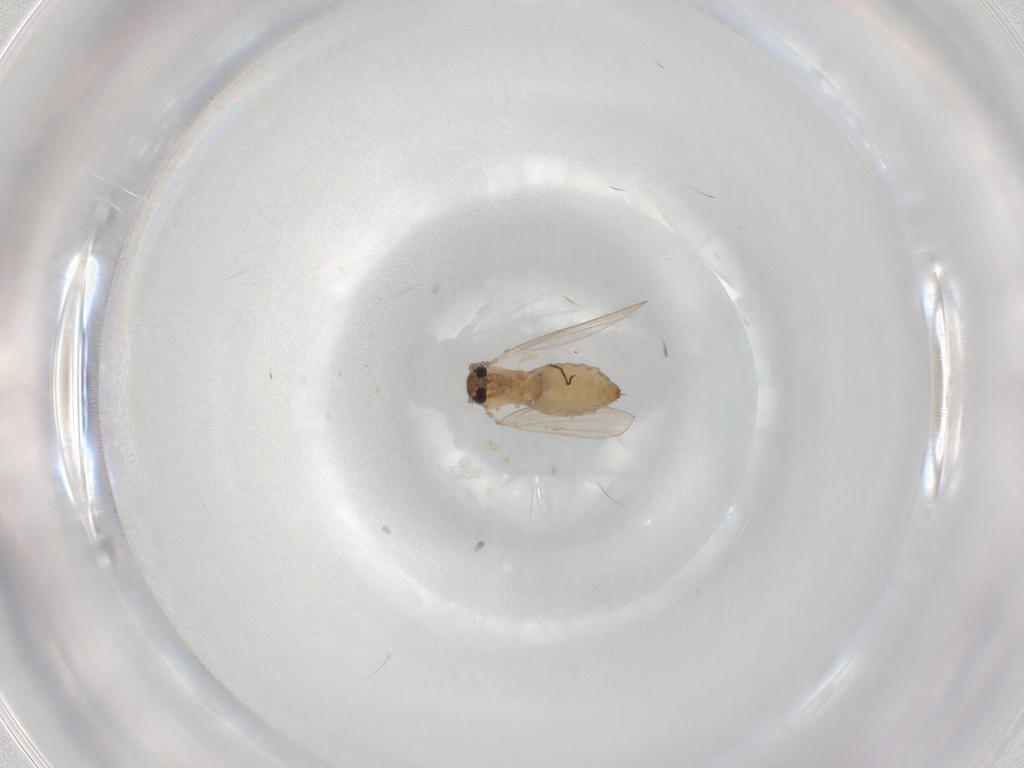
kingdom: Animalia
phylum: Arthropoda
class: Insecta
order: Diptera
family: Psychodidae
